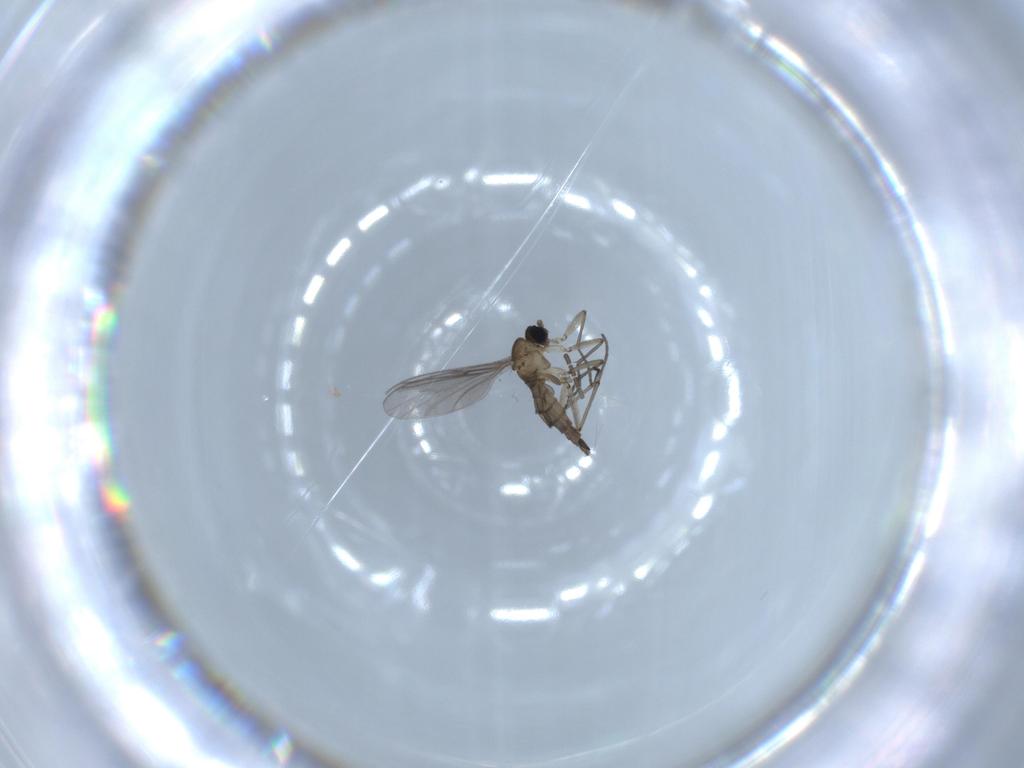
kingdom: Animalia
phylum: Arthropoda
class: Insecta
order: Diptera
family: Sciaridae
